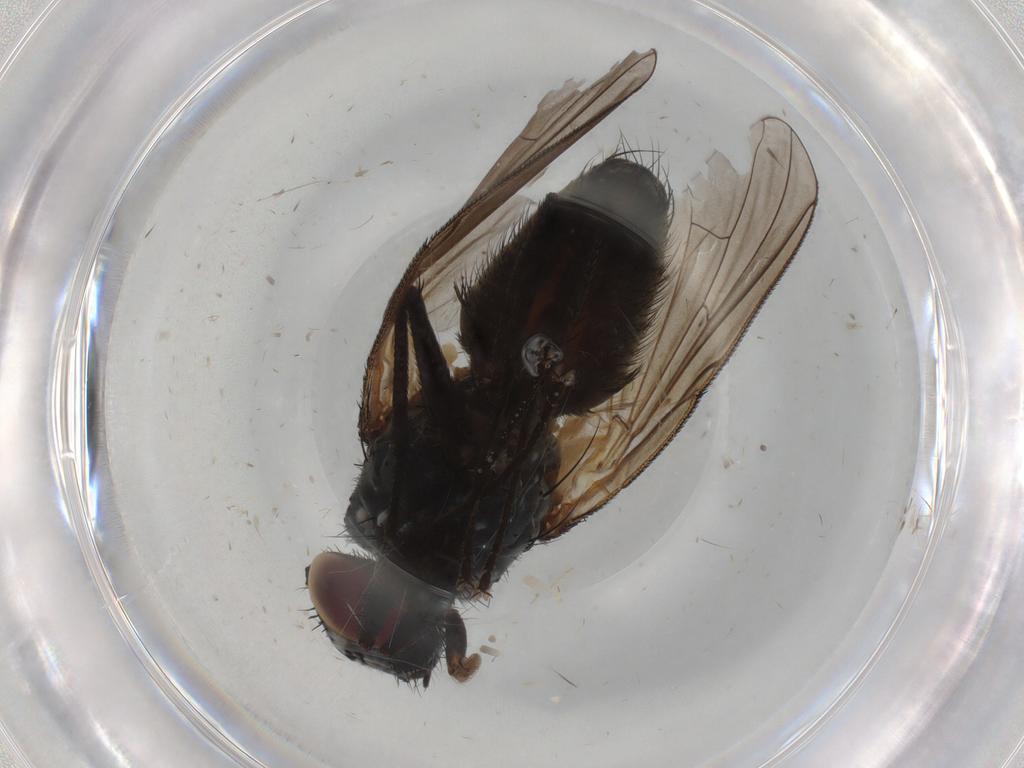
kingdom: Animalia
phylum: Arthropoda
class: Insecta
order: Diptera
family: Muscidae
